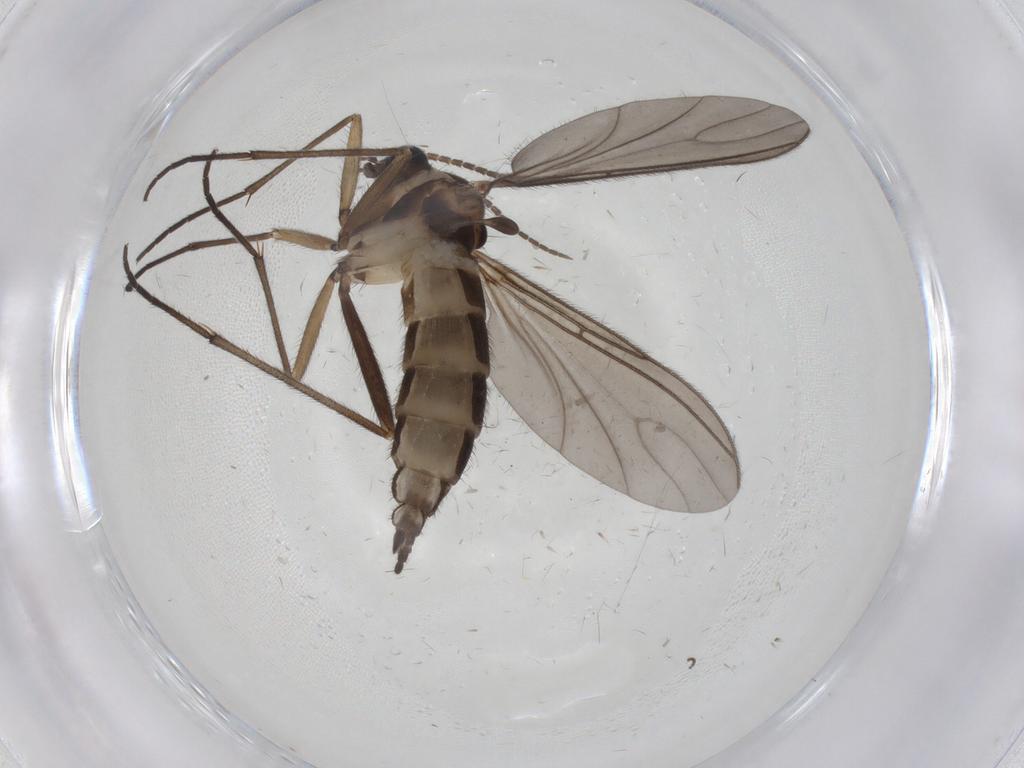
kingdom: Animalia
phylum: Arthropoda
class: Insecta
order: Diptera
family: Sciaridae
